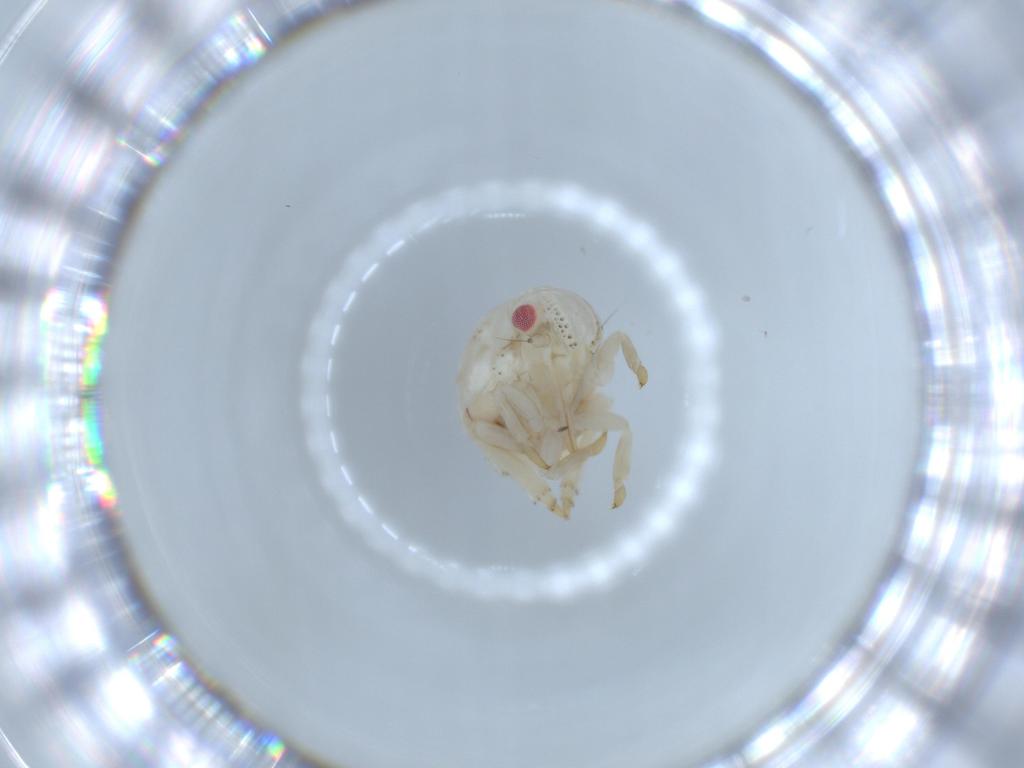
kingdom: Animalia
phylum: Arthropoda
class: Insecta
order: Hemiptera
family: Acanaloniidae
